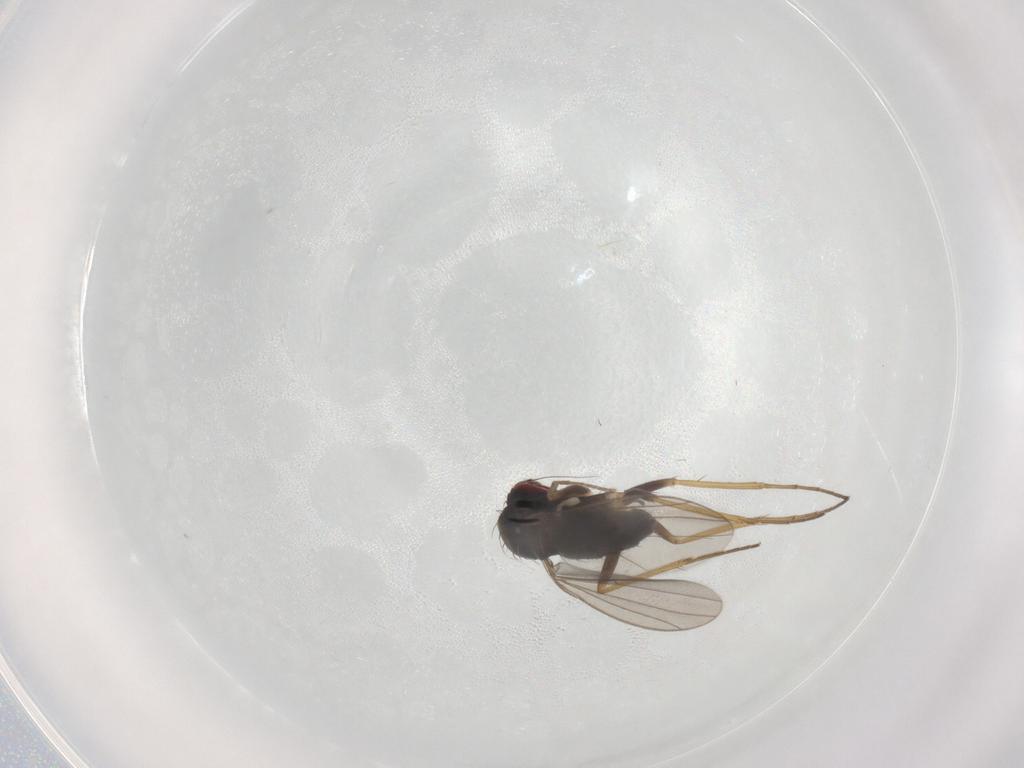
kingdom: Animalia
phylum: Arthropoda
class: Insecta
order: Diptera
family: Dolichopodidae
